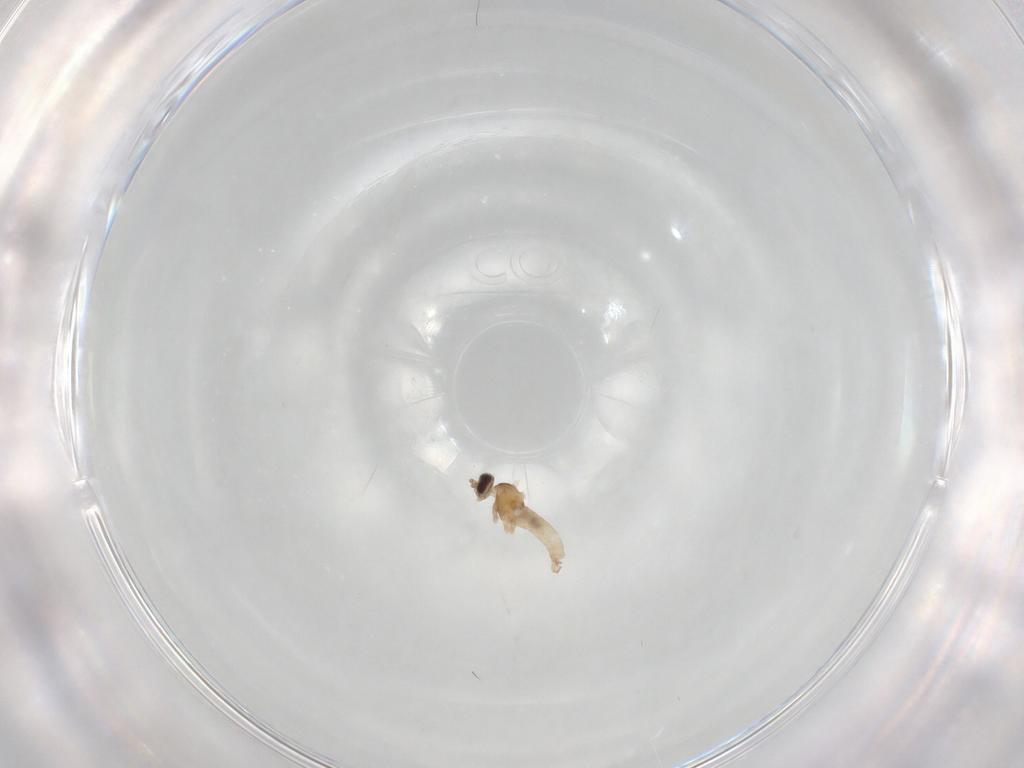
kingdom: Animalia
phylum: Arthropoda
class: Insecta
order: Diptera
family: Cecidomyiidae
